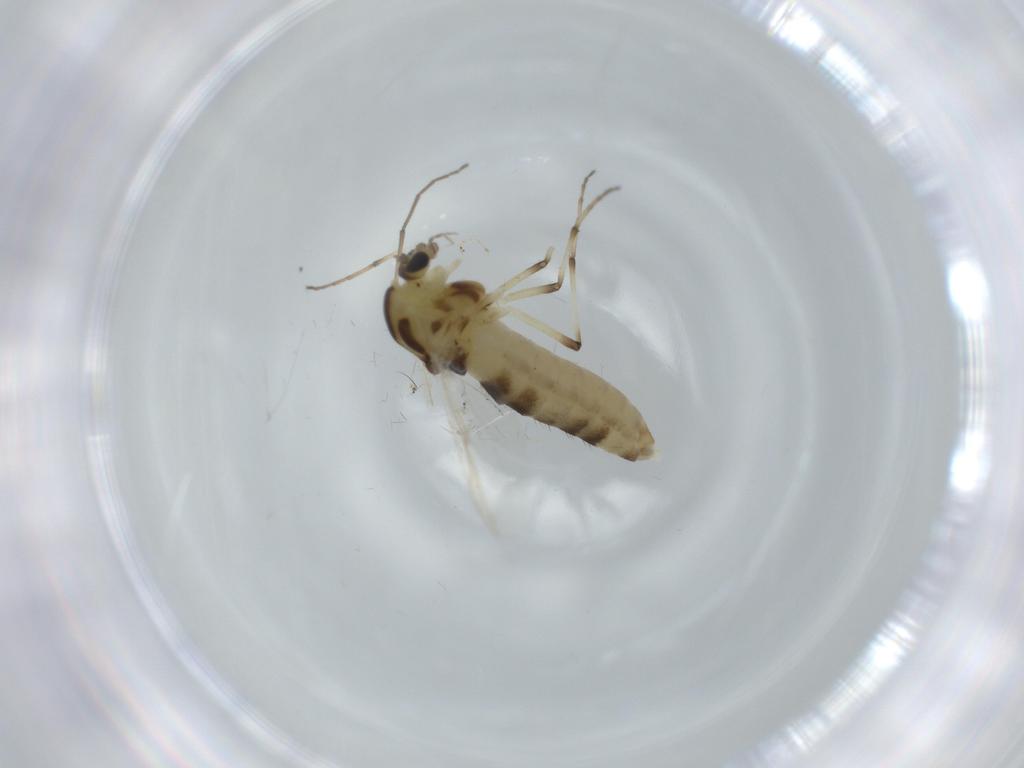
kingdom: Animalia
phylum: Arthropoda
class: Insecta
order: Diptera
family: Chironomidae
